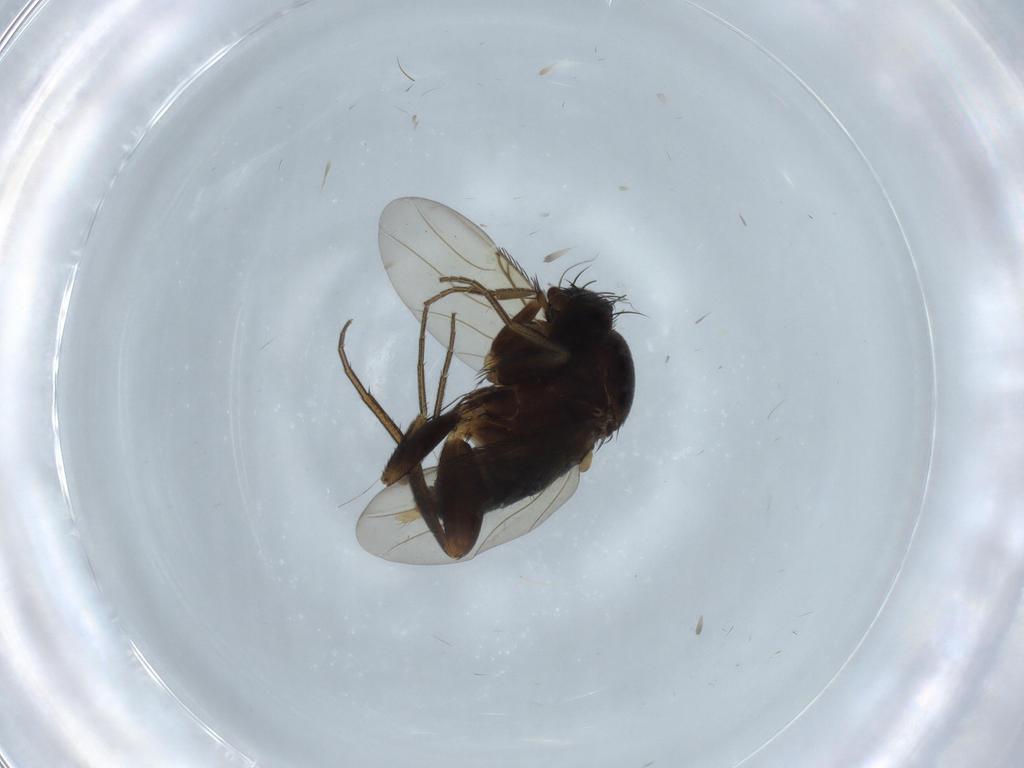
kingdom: Animalia
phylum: Arthropoda
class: Insecta
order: Diptera
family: Phoridae
